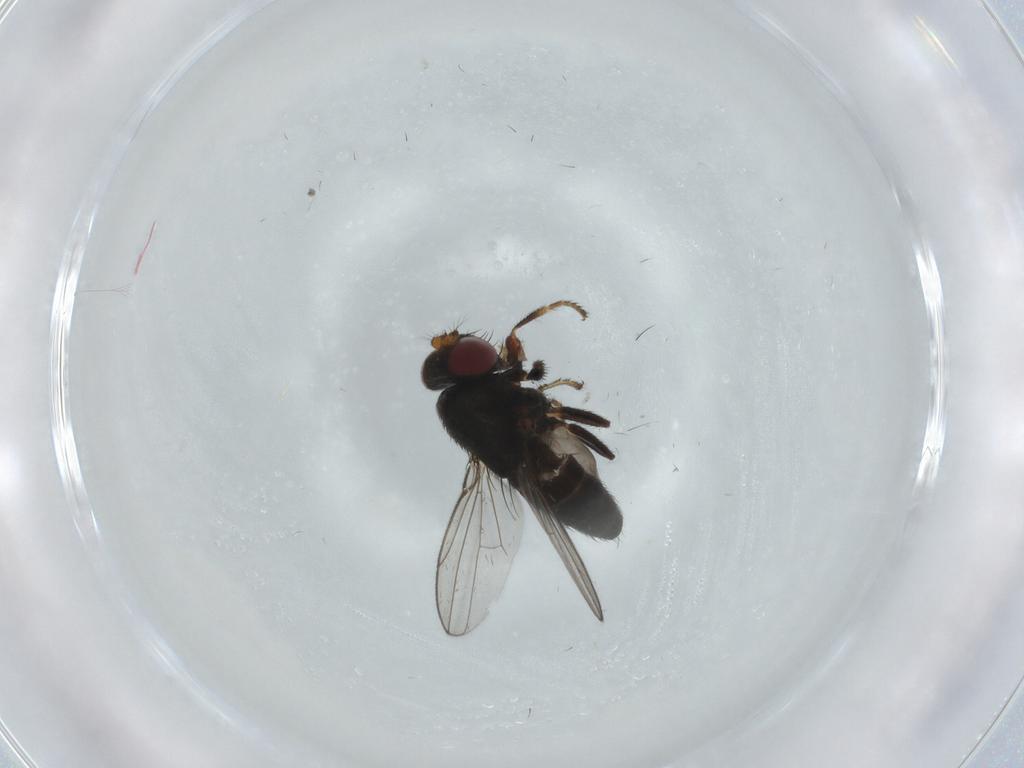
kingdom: Animalia
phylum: Arthropoda
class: Insecta
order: Diptera
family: Ephydridae
